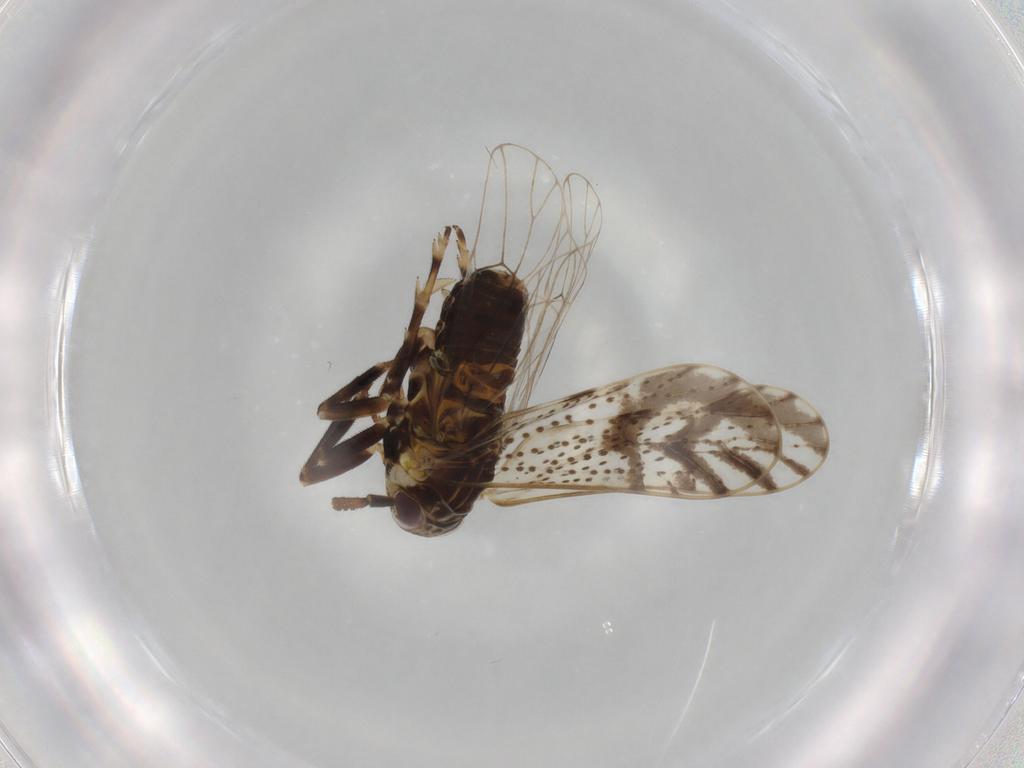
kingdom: Animalia
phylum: Arthropoda
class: Insecta
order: Hemiptera
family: Delphacidae
